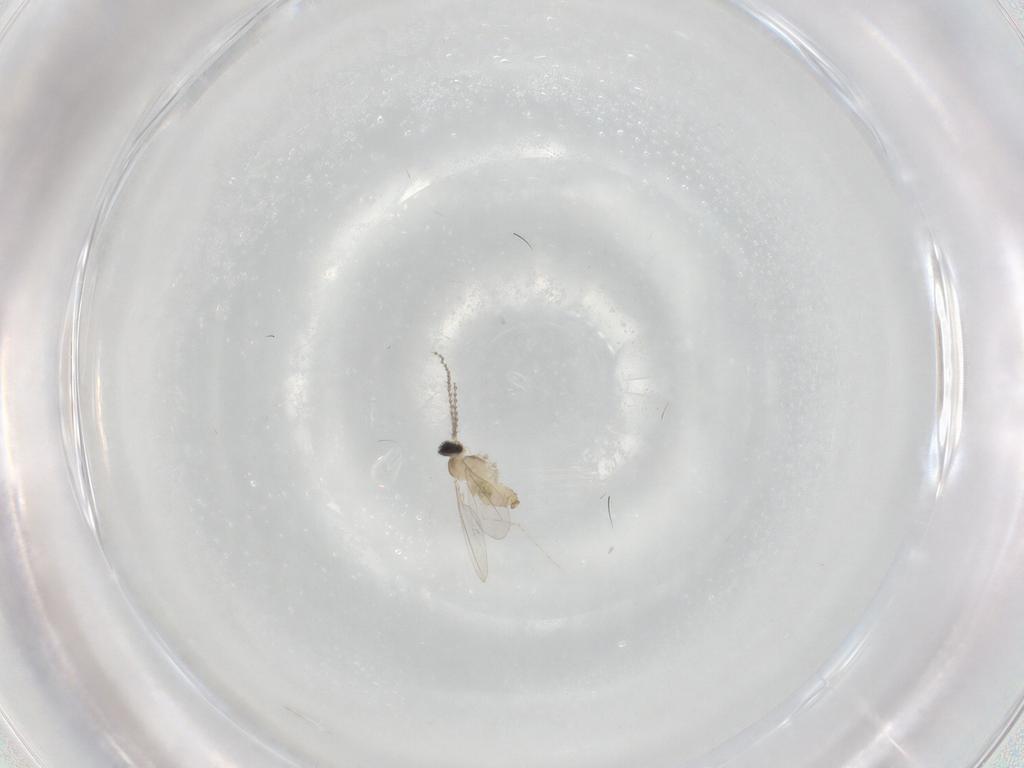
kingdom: Animalia
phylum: Arthropoda
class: Insecta
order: Diptera
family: Cecidomyiidae
